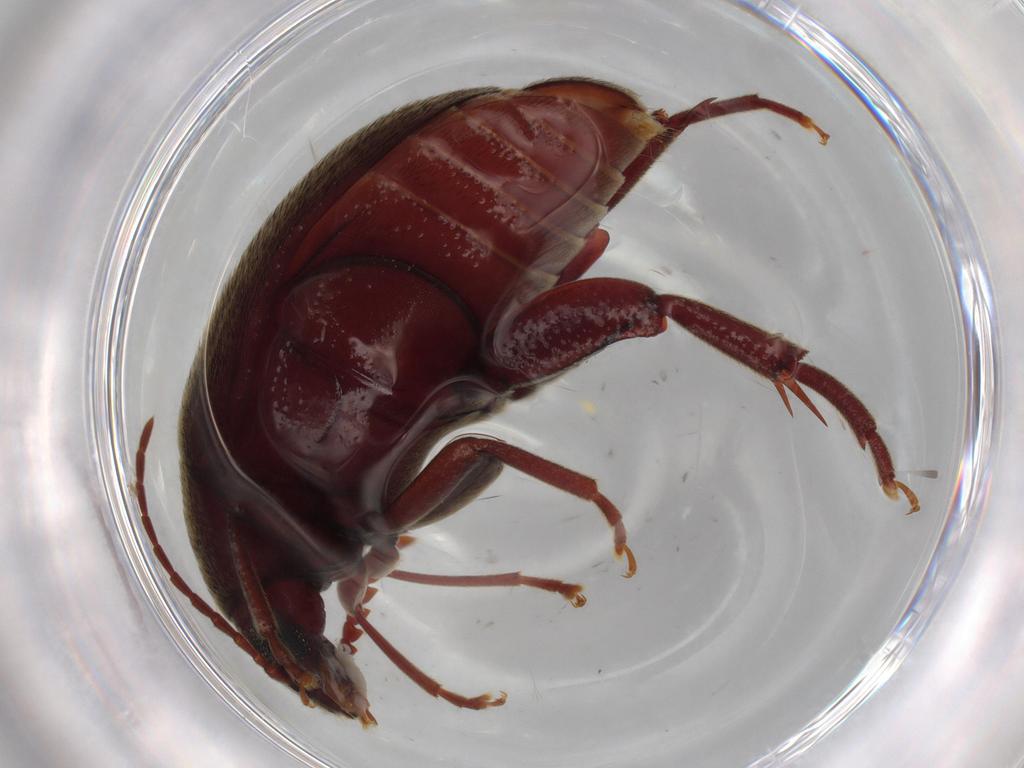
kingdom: Animalia
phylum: Arthropoda
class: Insecta
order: Coleoptera
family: Chrysomelidae
